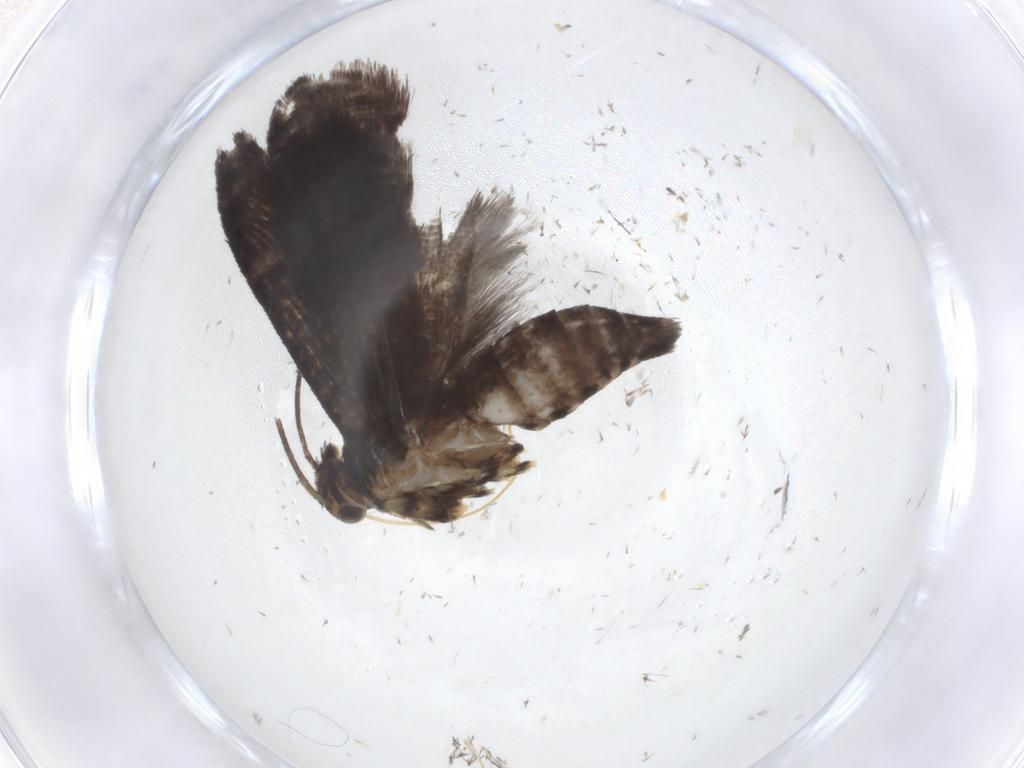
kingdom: Animalia
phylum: Arthropoda
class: Insecta
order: Lepidoptera
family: Geometridae
